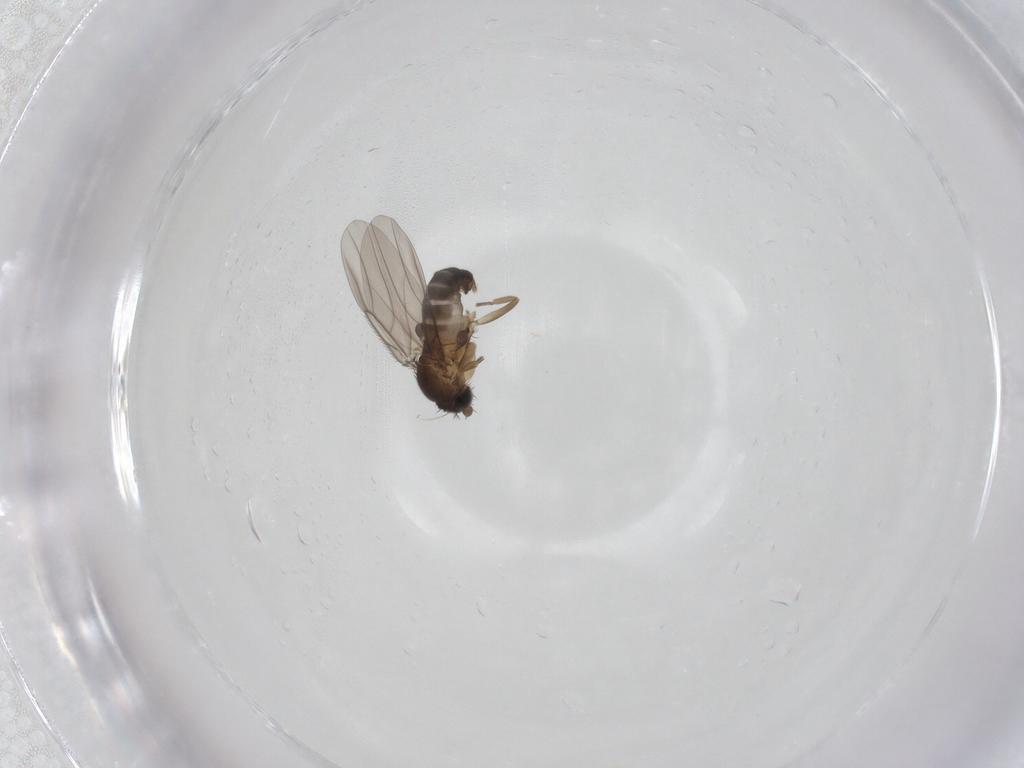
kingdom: Animalia
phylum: Arthropoda
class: Insecta
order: Diptera
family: Phoridae
